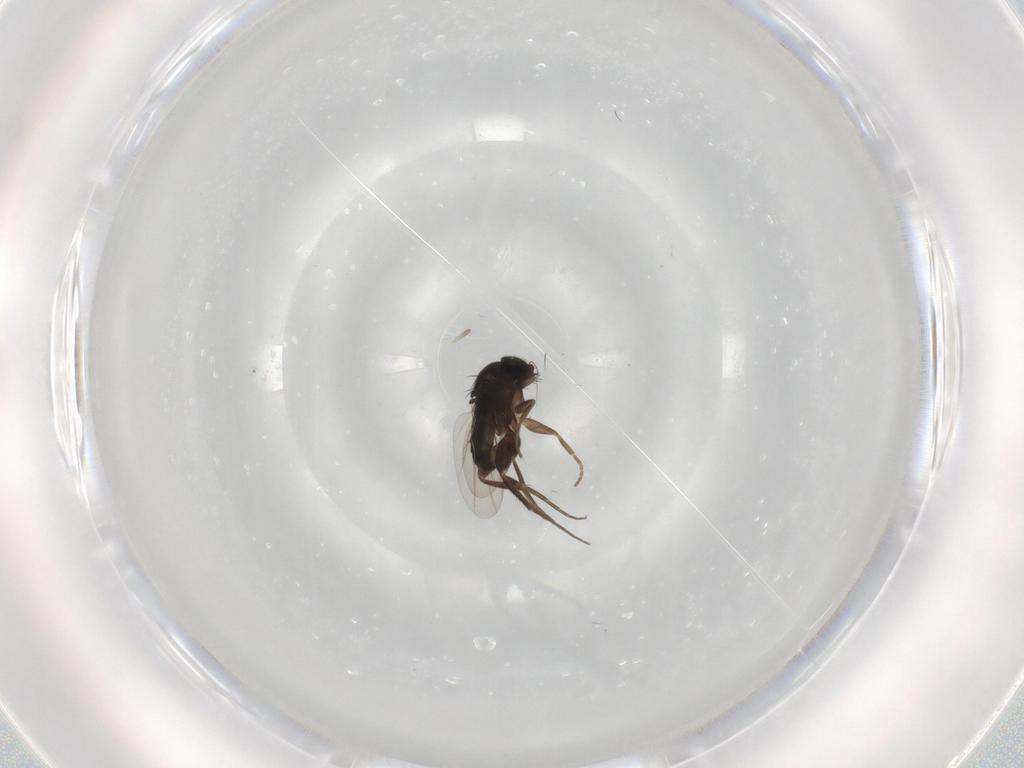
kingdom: Animalia
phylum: Arthropoda
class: Insecta
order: Diptera
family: Phoridae
